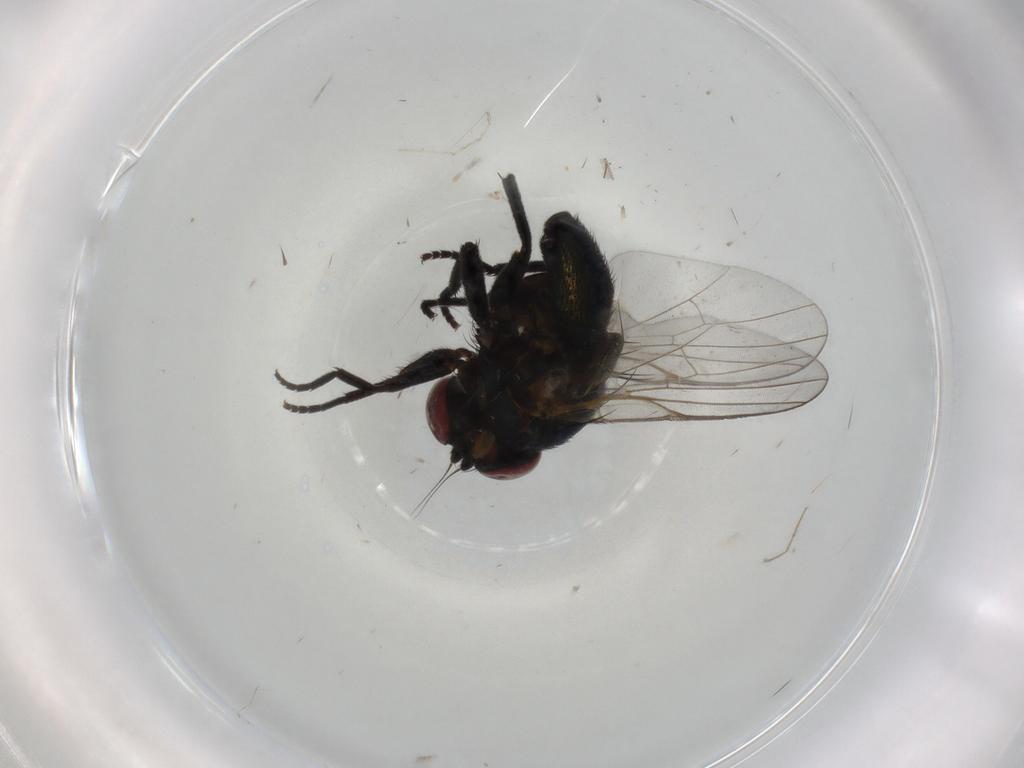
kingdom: Animalia
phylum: Arthropoda
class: Insecta
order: Diptera
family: Agromyzidae
